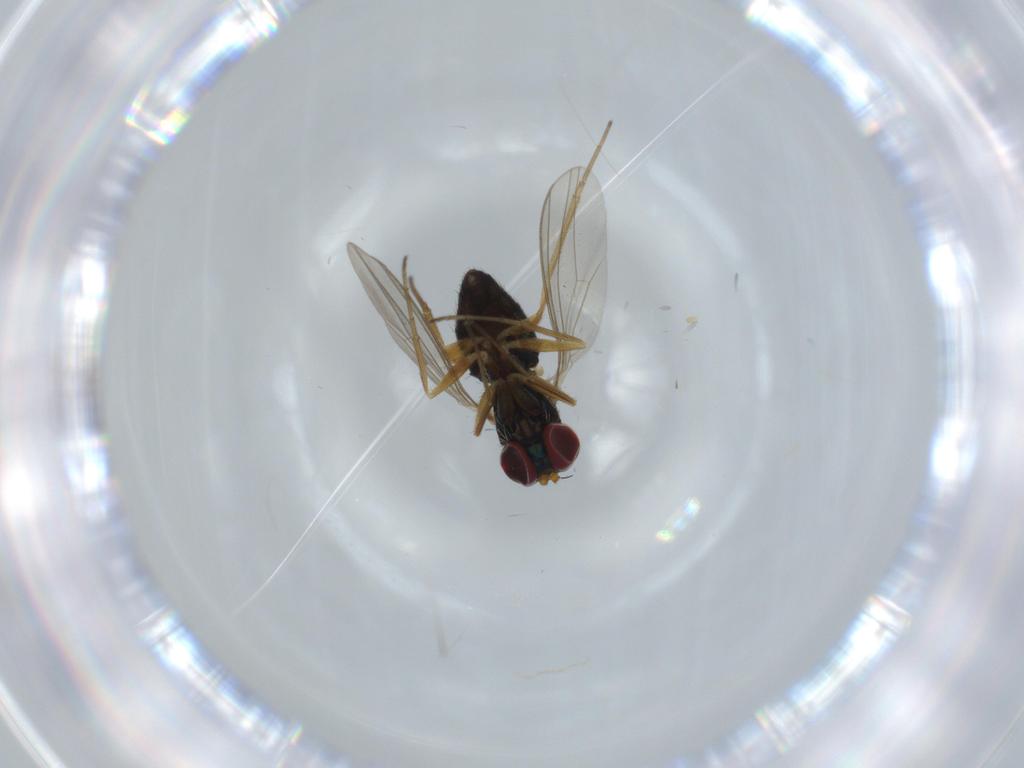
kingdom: Animalia
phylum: Arthropoda
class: Insecta
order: Diptera
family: Dolichopodidae
